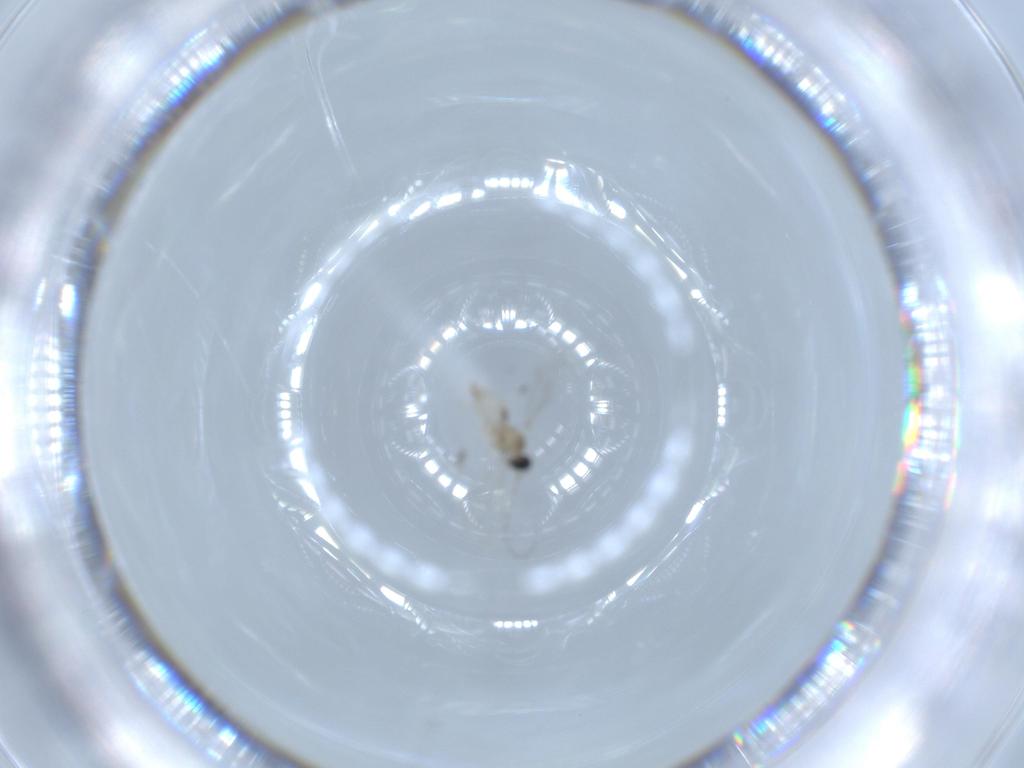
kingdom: Animalia
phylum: Arthropoda
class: Insecta
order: Diptera
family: Cecidomyiidae
